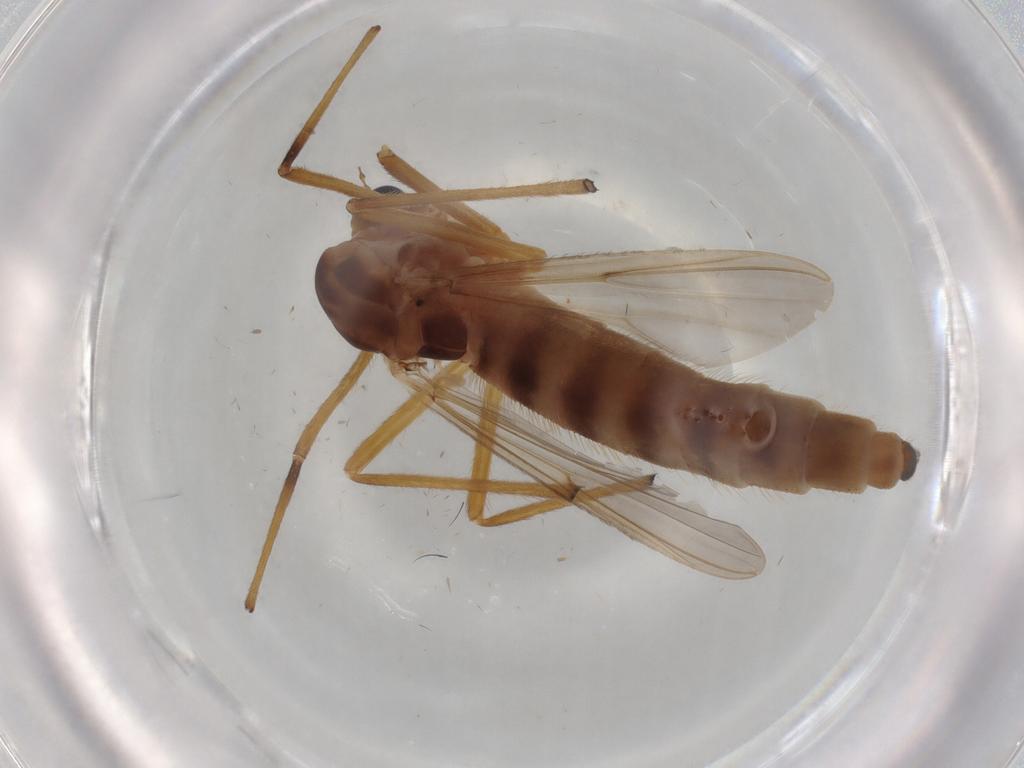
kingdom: Animalia
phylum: Arthropoda
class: Insecta
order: Diptera
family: Chironomidae
